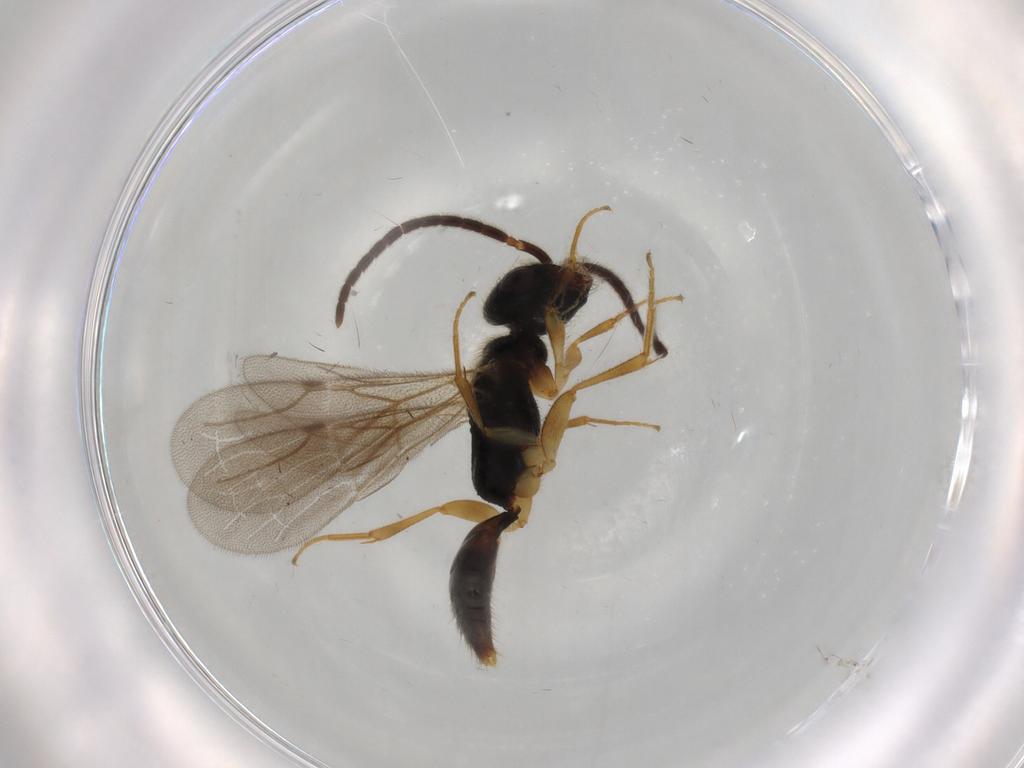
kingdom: Animalia
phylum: Arthropoda
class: Insecta
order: Hymenoptera
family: Bethylidae
